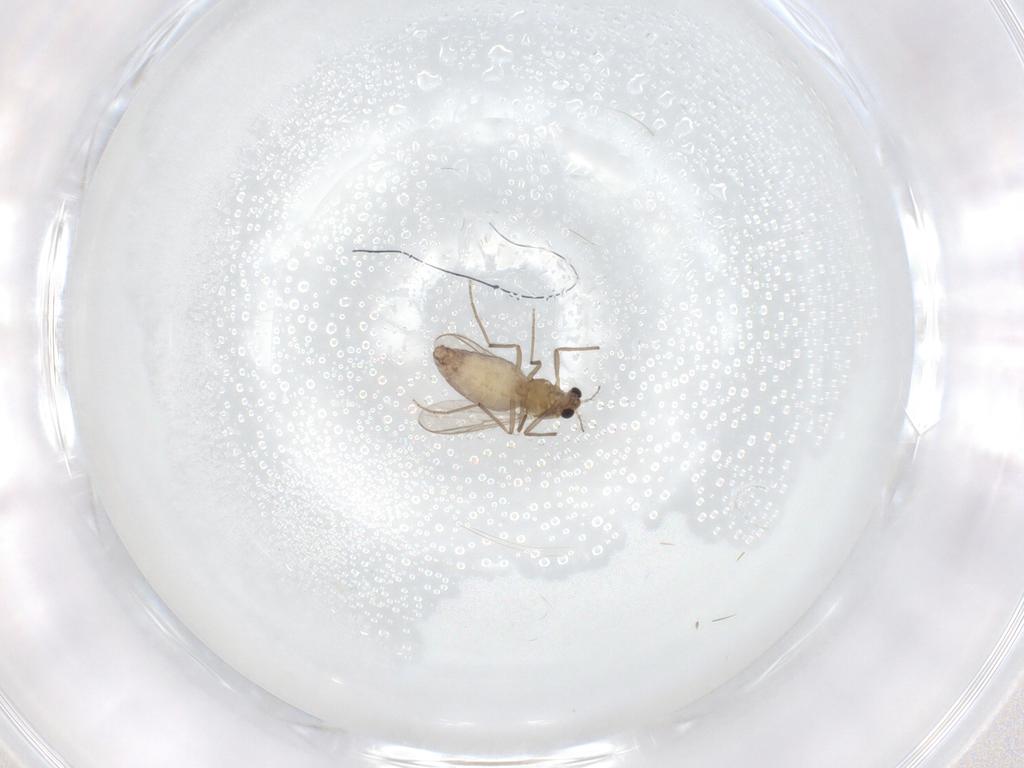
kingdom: Animalia
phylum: Arthropoda
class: Insecta
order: Diptera
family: Chironomidae
